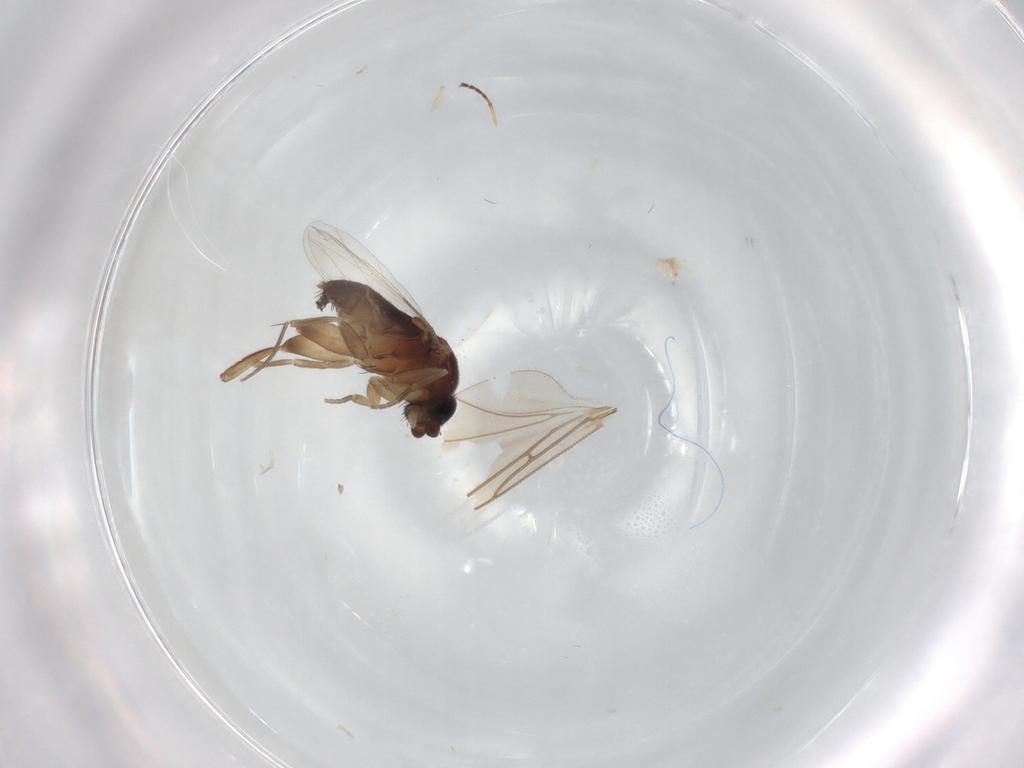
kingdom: Animalia
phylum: Arthropoda
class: Insecta
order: Diptera
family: Phoridae
